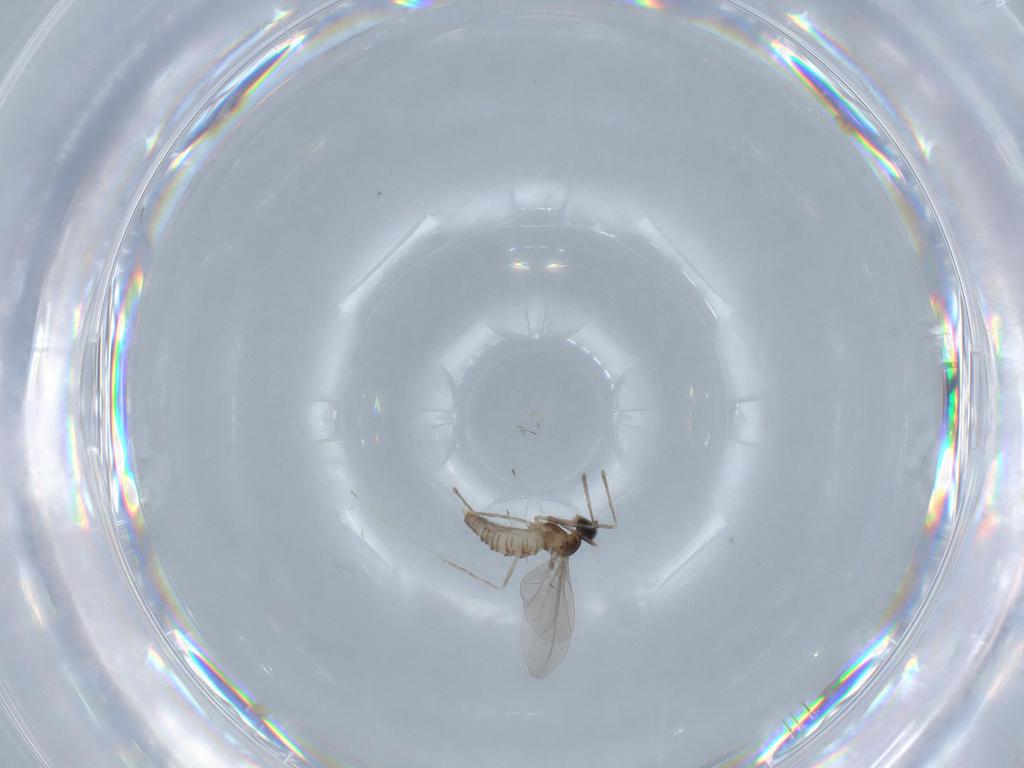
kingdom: Animalia
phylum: Arthropoda
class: Insecta
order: Diptera
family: Cecidomyiidae
